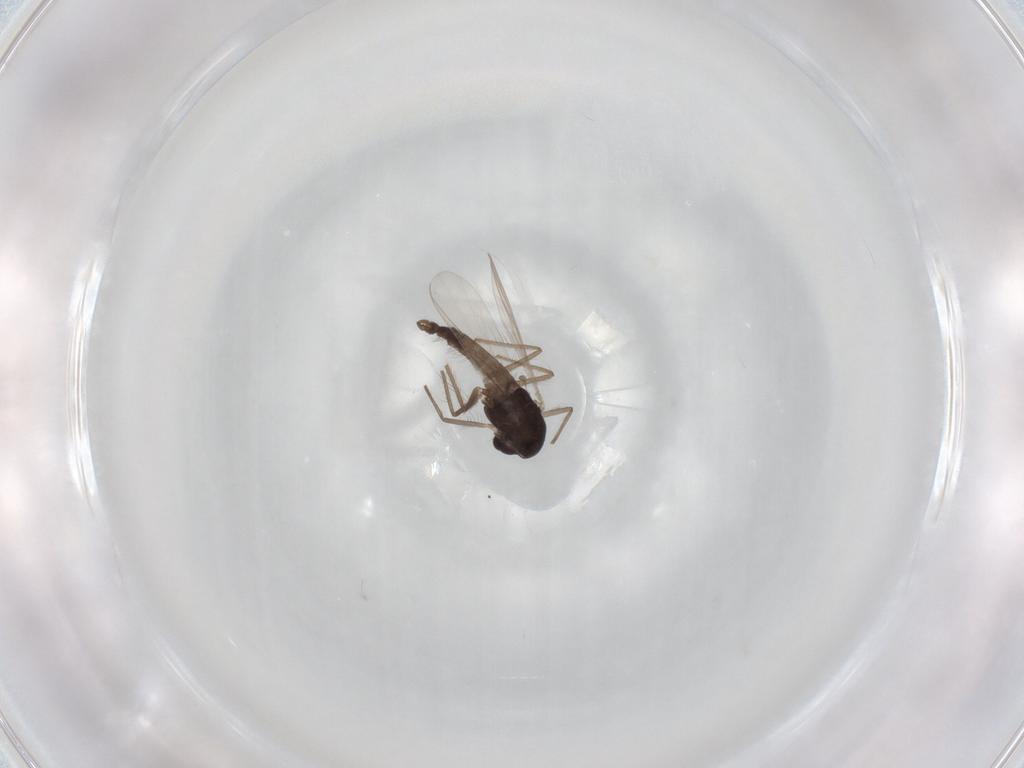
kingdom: Animalia
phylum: Arthropoda
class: Insecta
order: Diptera
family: Chironomidae
